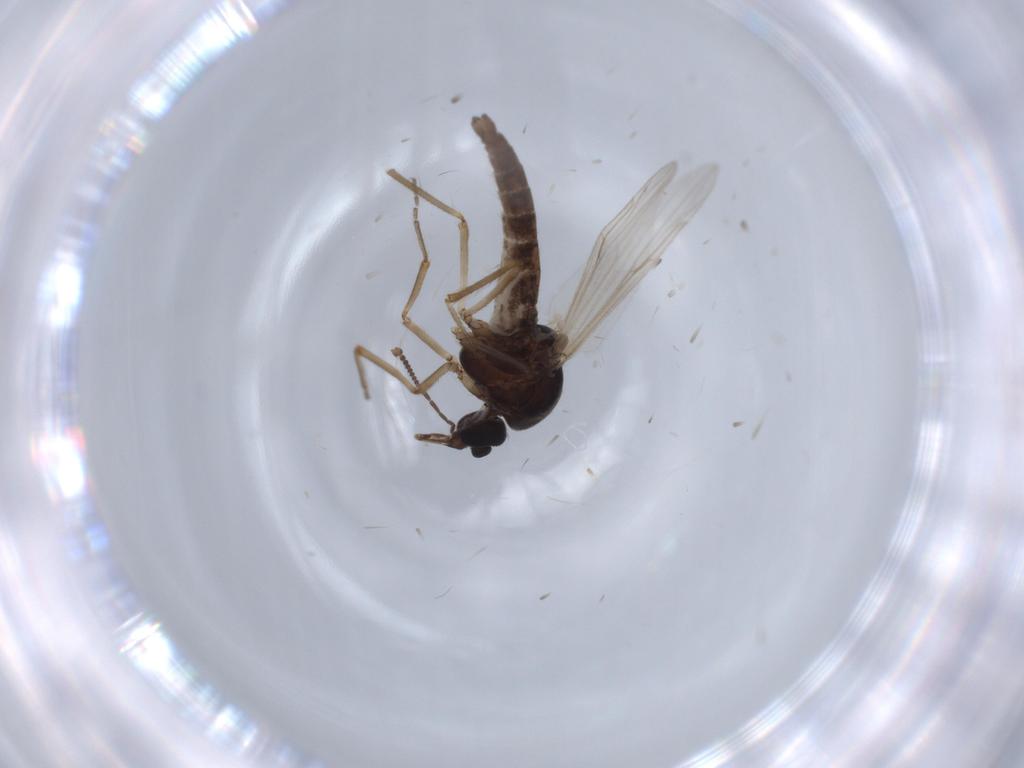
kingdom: Animalia
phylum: Arthropoda
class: Insecta
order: Diptera
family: Ceratopogonidae
